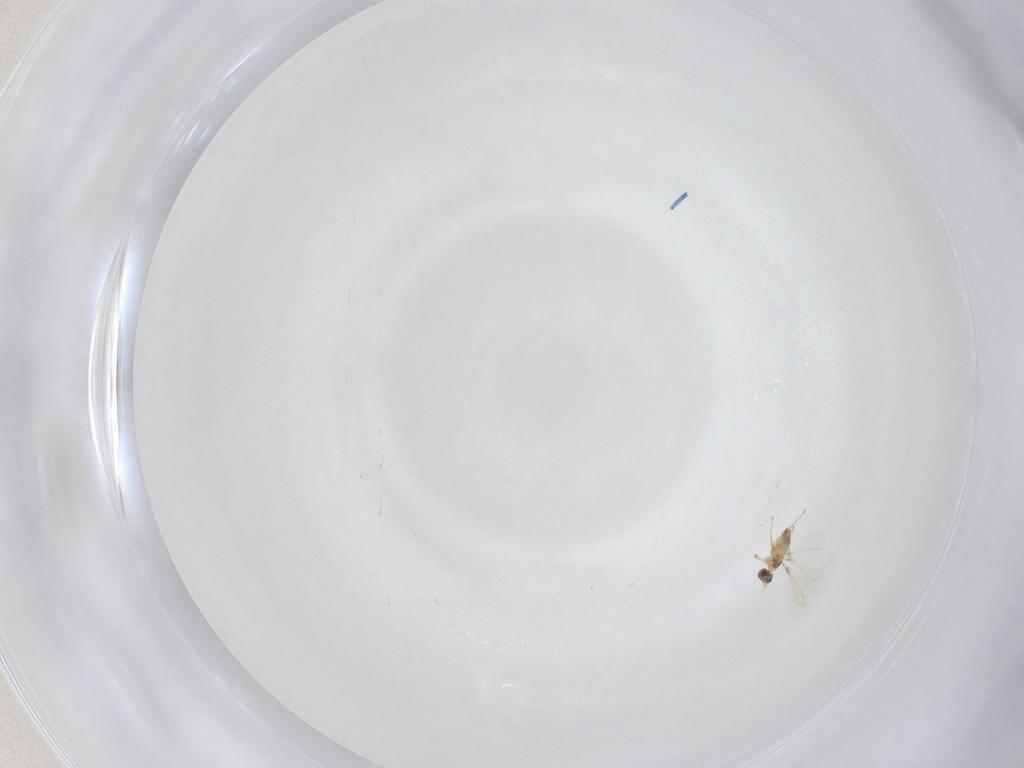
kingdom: Animalia
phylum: Arthropoda
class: Insecta
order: Hymenoptera
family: Mymaridae
